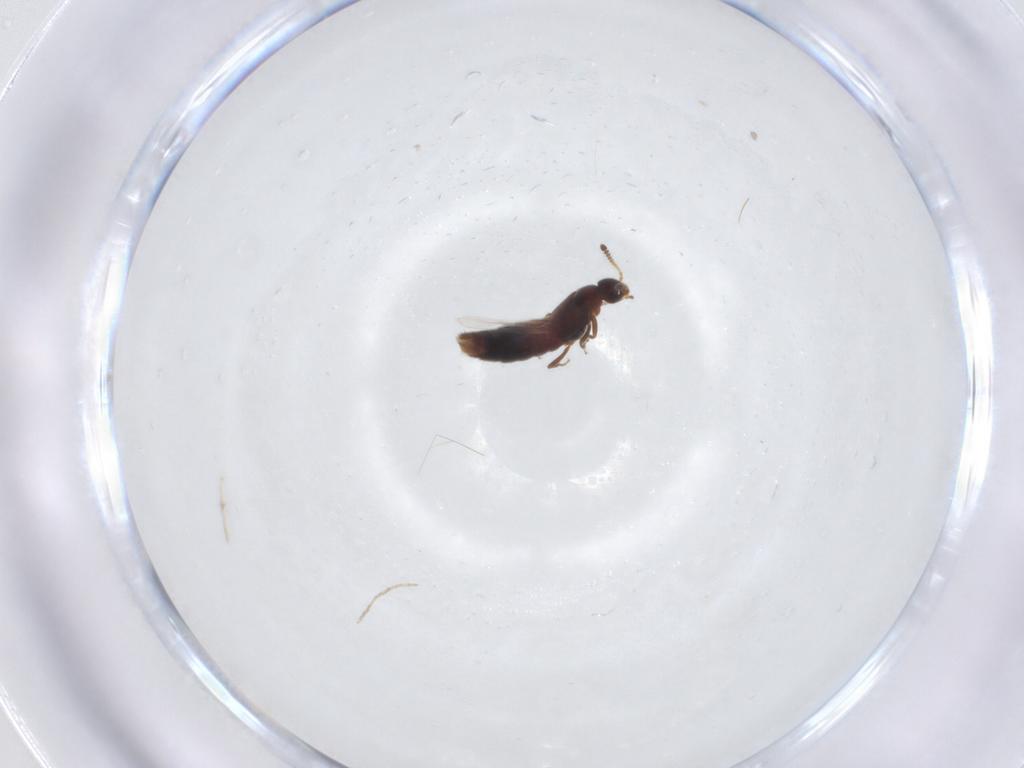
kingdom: Animalia
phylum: Arthropoda
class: Insecta
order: Coleoptera
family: Staphylinidae
